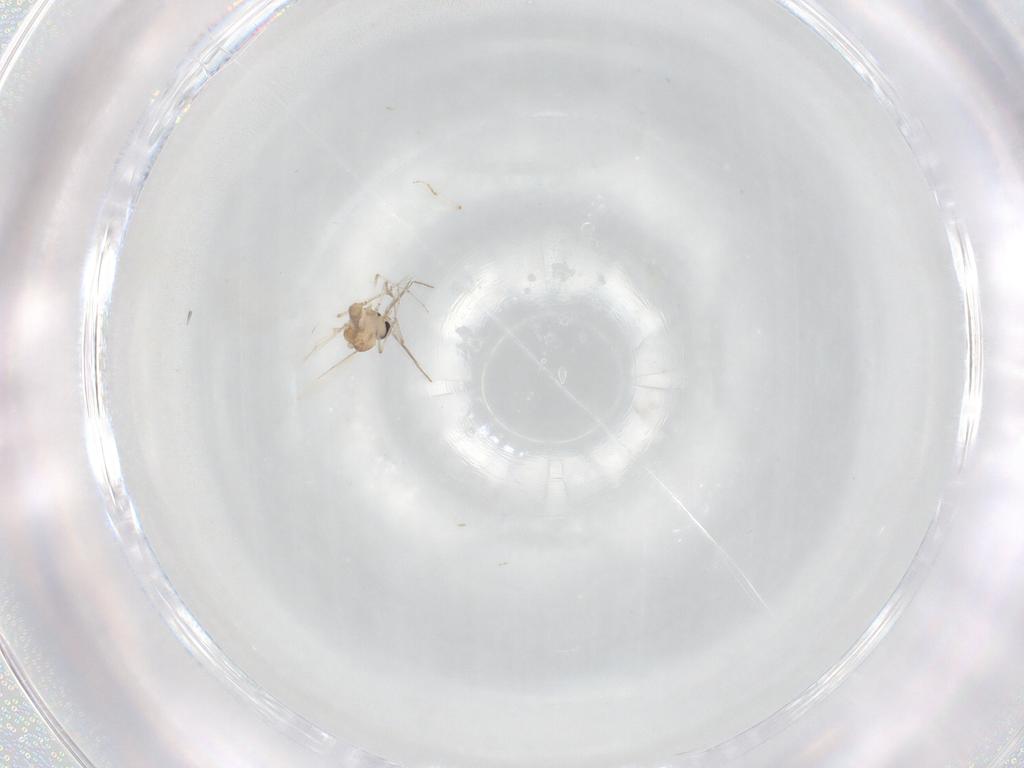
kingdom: Animalia
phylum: Arthropoda
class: Insecta
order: Diptera
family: Ceratopogonidae
